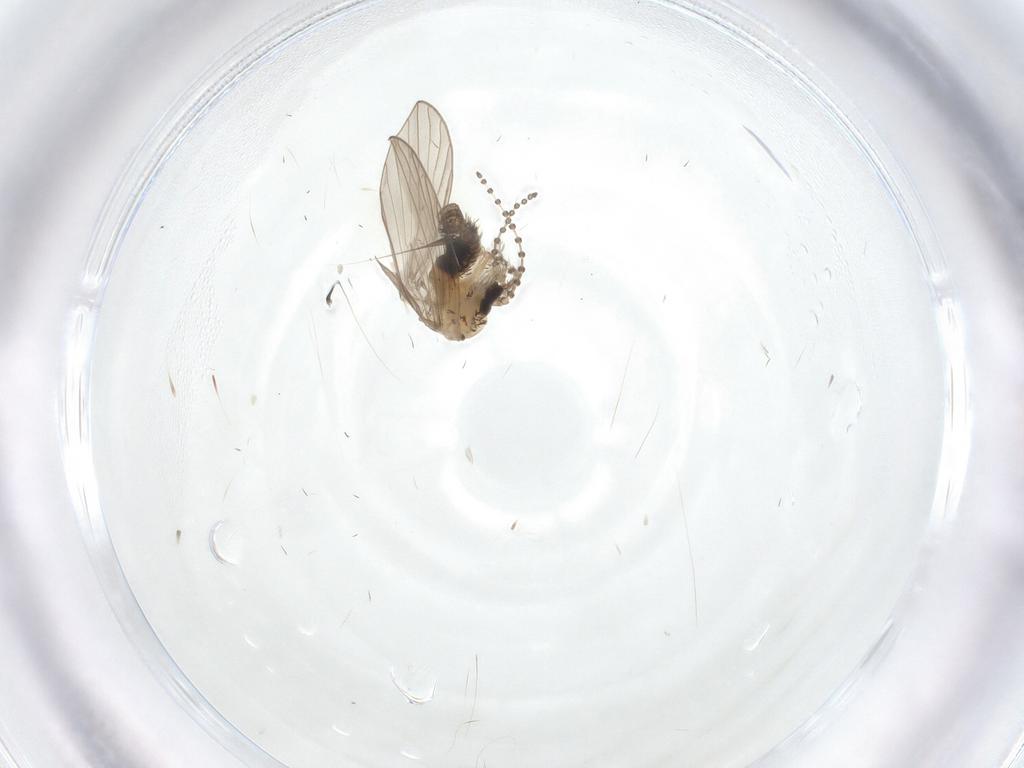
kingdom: Animalia
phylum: Arthropoda
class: Insecta
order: Diptera
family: Psychodidae
